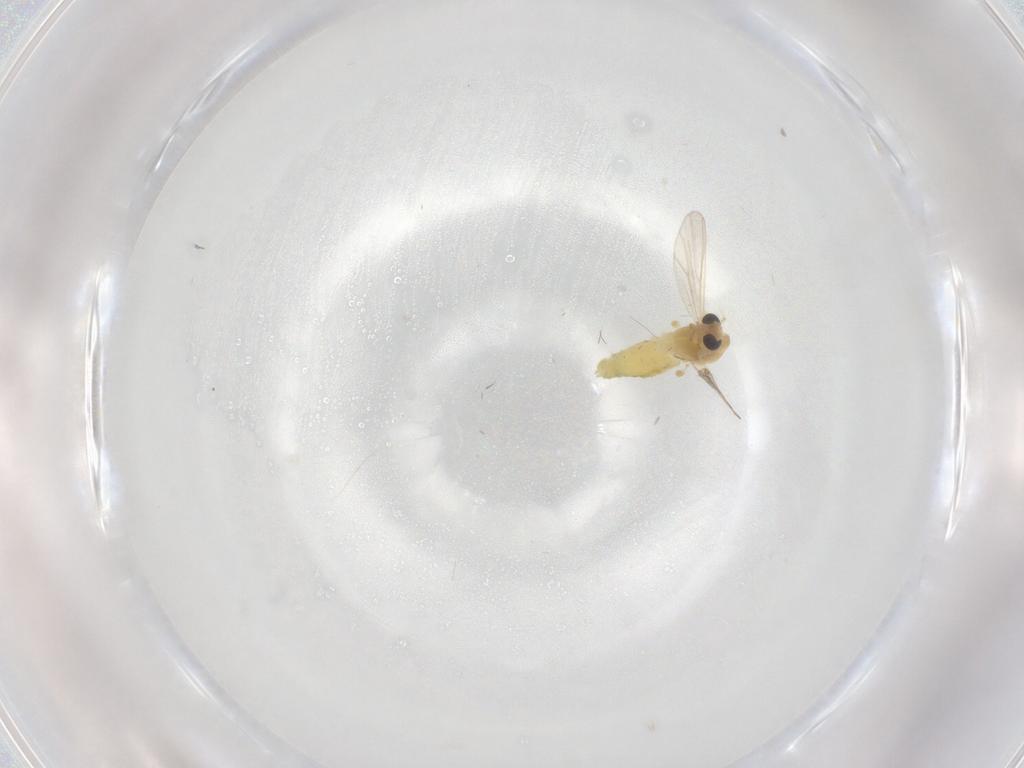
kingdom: Animalia
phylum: Arthropoda
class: Insecta
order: Diptera
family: Chironomidae
